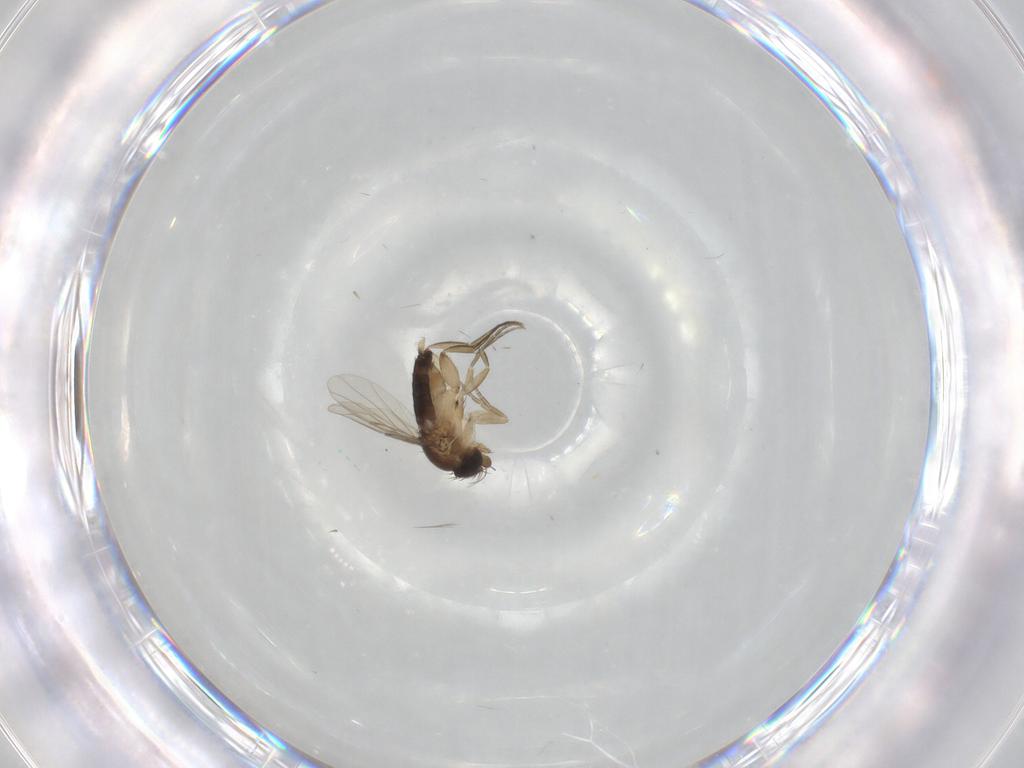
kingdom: Animalia
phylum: Arthropoda
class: Insecta
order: Diptera
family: Phoridae
